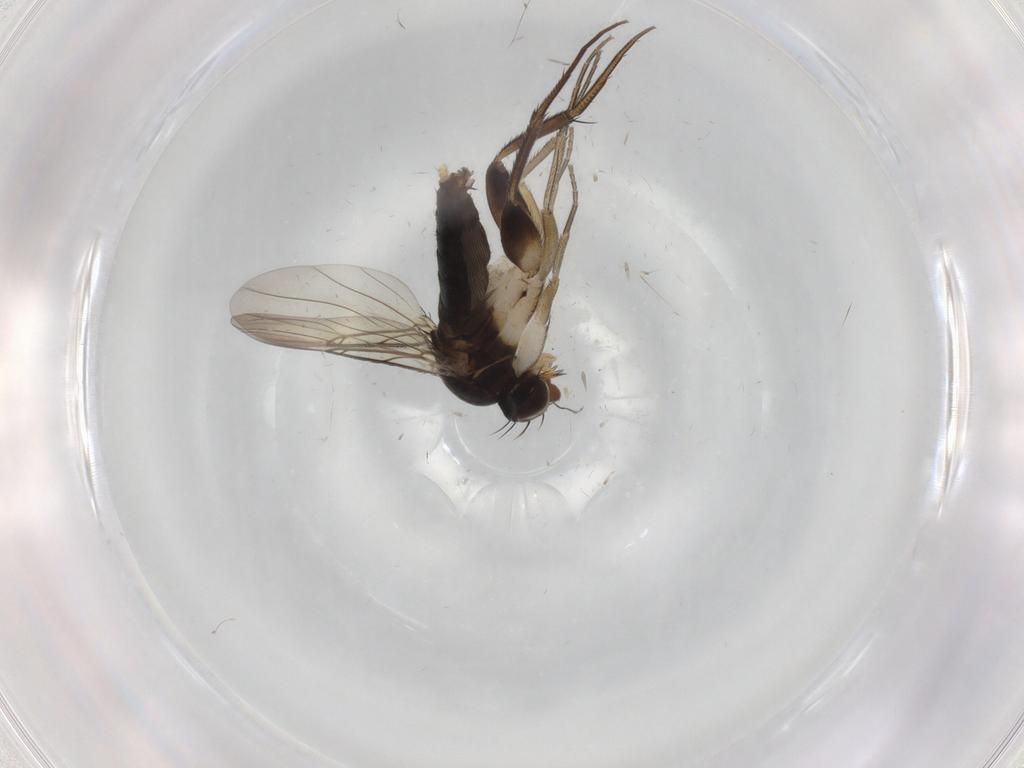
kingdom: Animalia
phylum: Arthropoda
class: Insecta
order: Diptera
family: Phoridae
